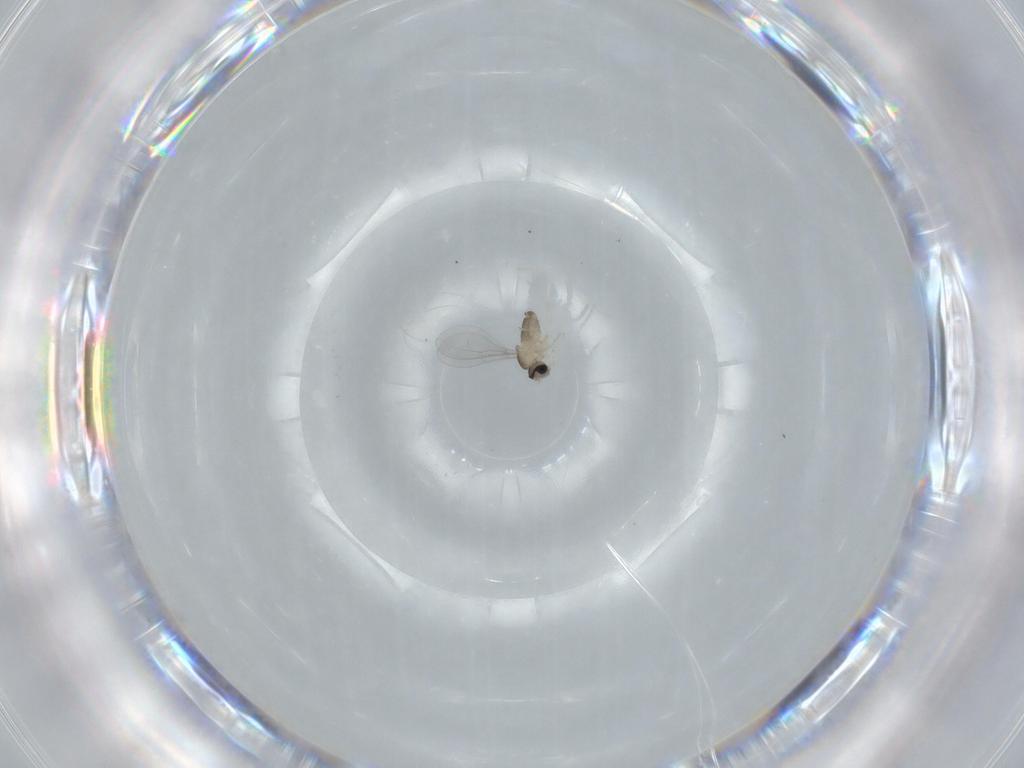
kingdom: Animalia
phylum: Arthropoda
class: Insecta
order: Diptera
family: Cecidomyiidae
